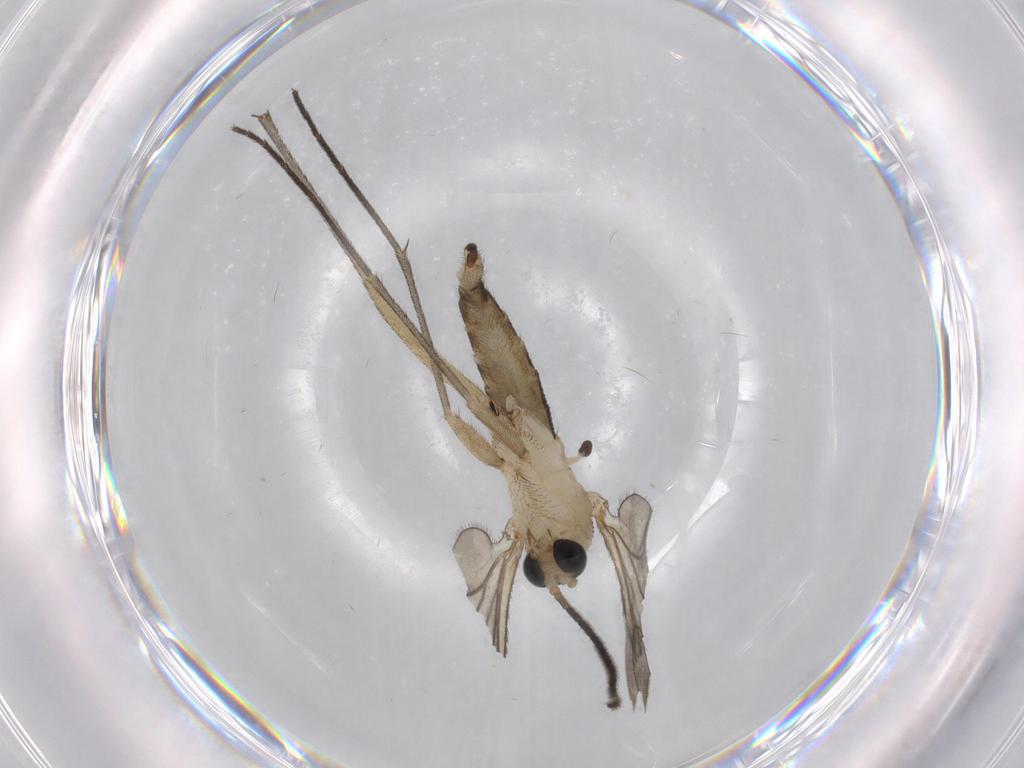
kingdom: Animalia
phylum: Arthropoda
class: Insecta
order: Diptera
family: Sciaridae
